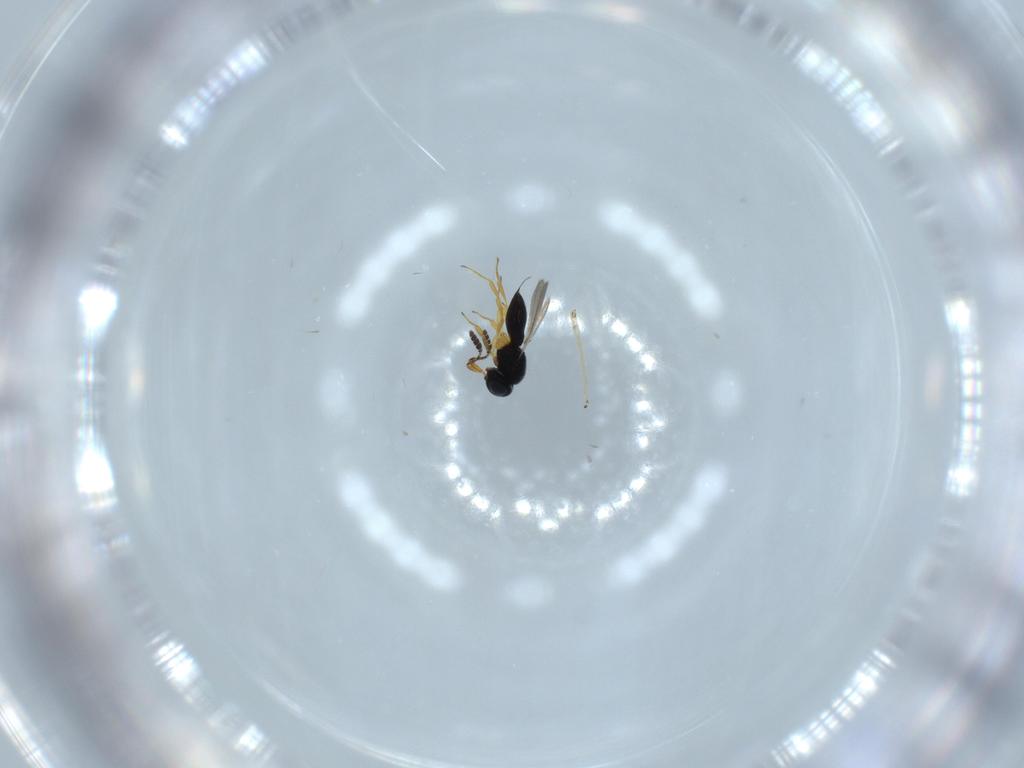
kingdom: Animalia
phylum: Arthropoda
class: Insecta
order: Hymenoptera
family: Scelionidae
